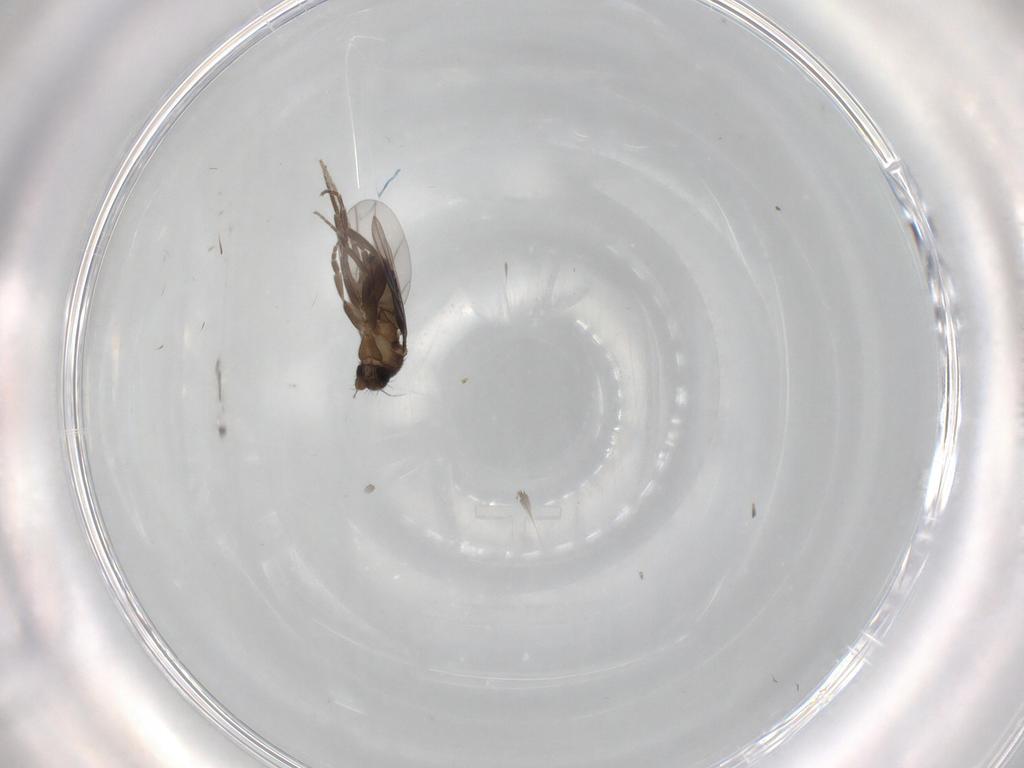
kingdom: Animalia
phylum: Arthropoda
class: Insecta
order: Diptera
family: Phoridae
